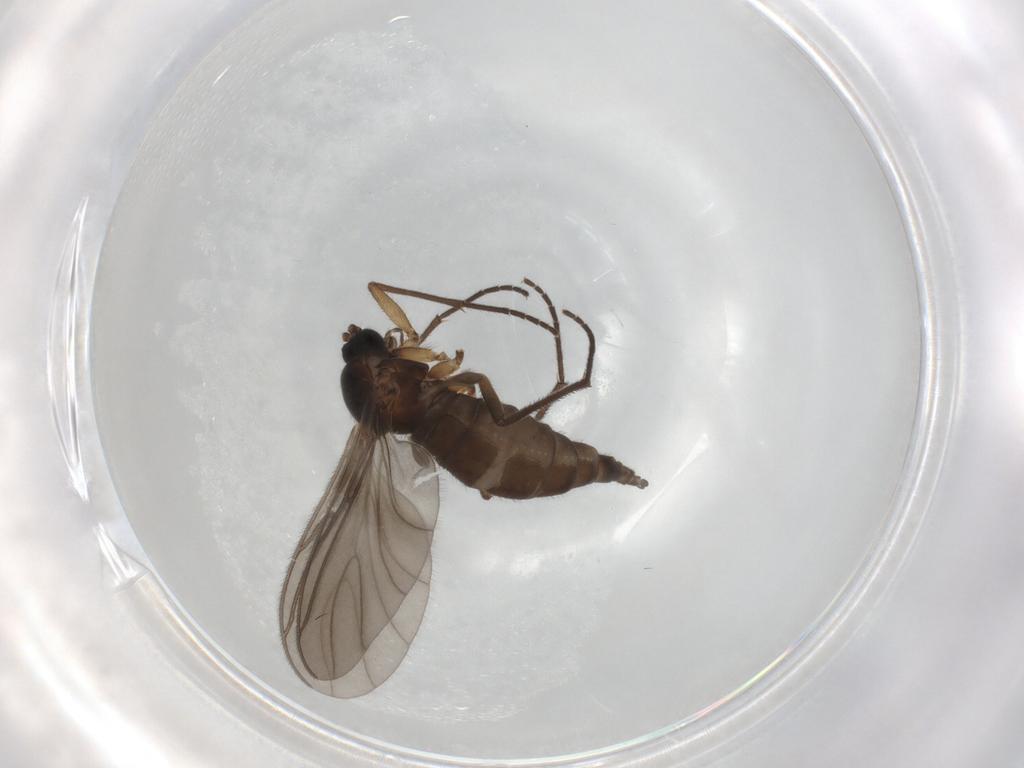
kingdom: Animalia
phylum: Arthropoda
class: Insecta
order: Diptera
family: Sciaridae
